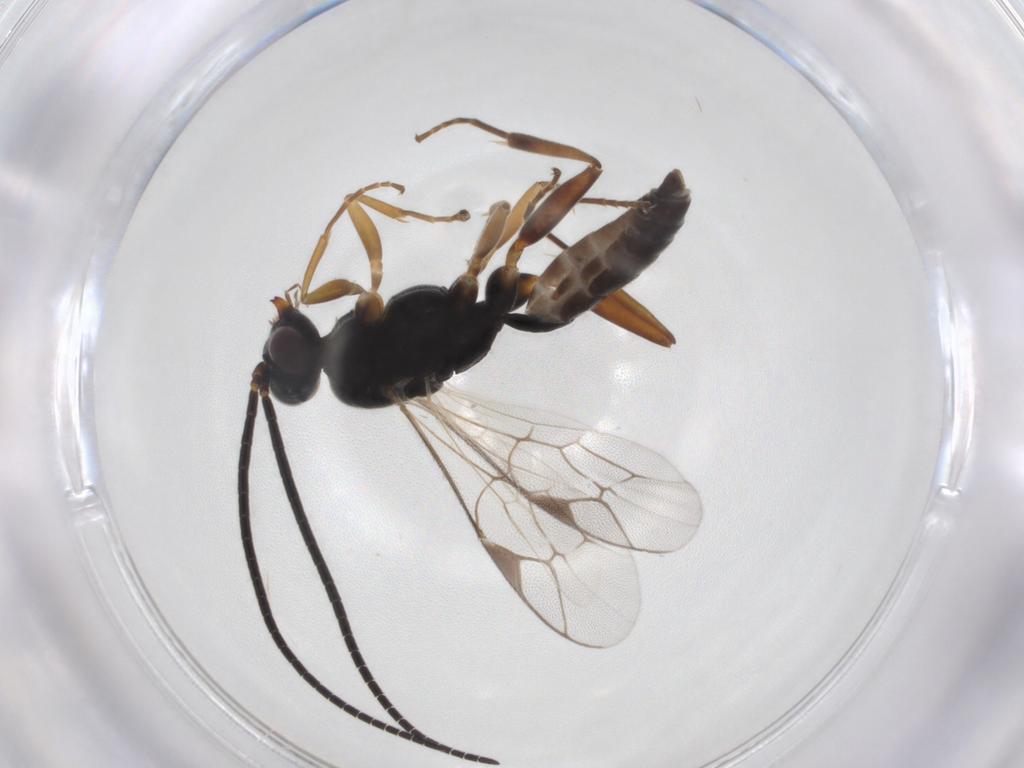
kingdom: Animalia
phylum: Arthropoda
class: Insecta
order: Hymenoptera
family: Ichneumonidae
